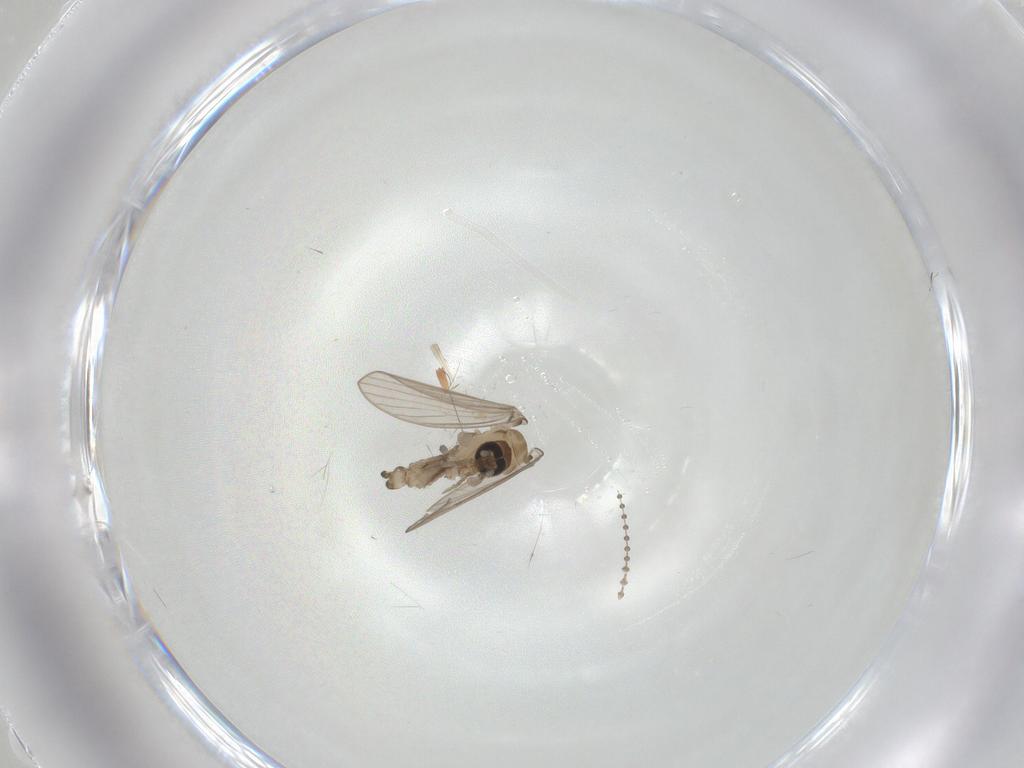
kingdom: Animalia
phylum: Arthropoda
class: Insecta
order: Diptera
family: Psychodidae
